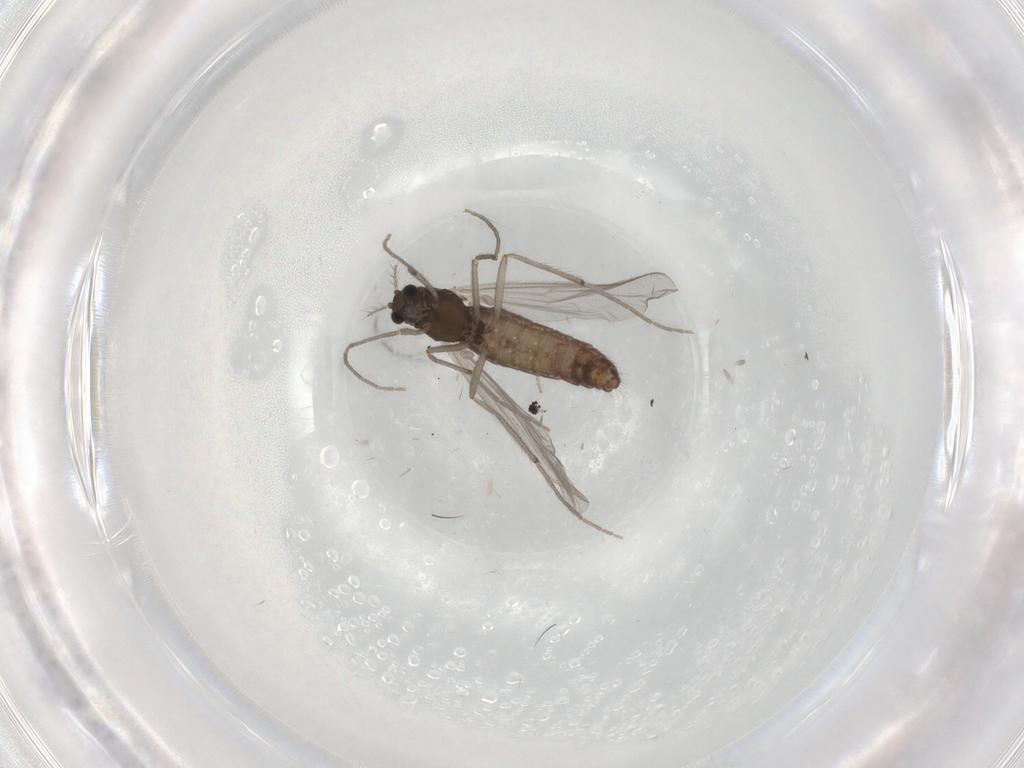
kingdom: Animalia
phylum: Arthropoda
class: Insecta
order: Diptera
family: Chironomidae
